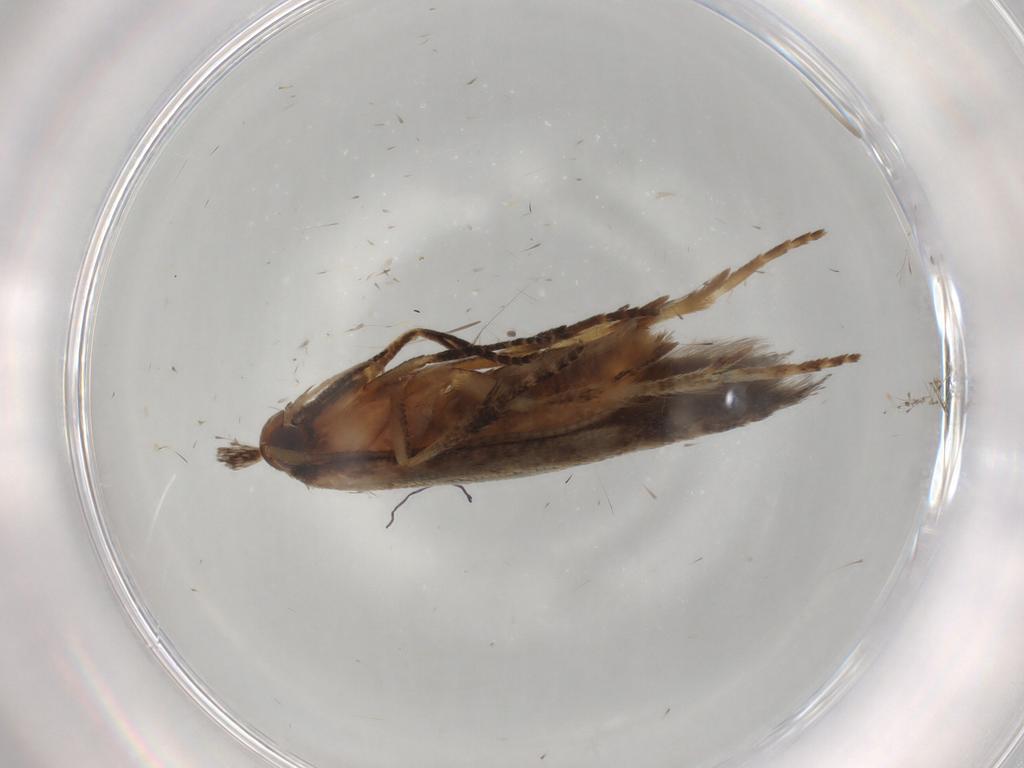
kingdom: Animalia
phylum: Arthropoda
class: Insecta
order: Lepidoptera
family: Cosmopterigidae
